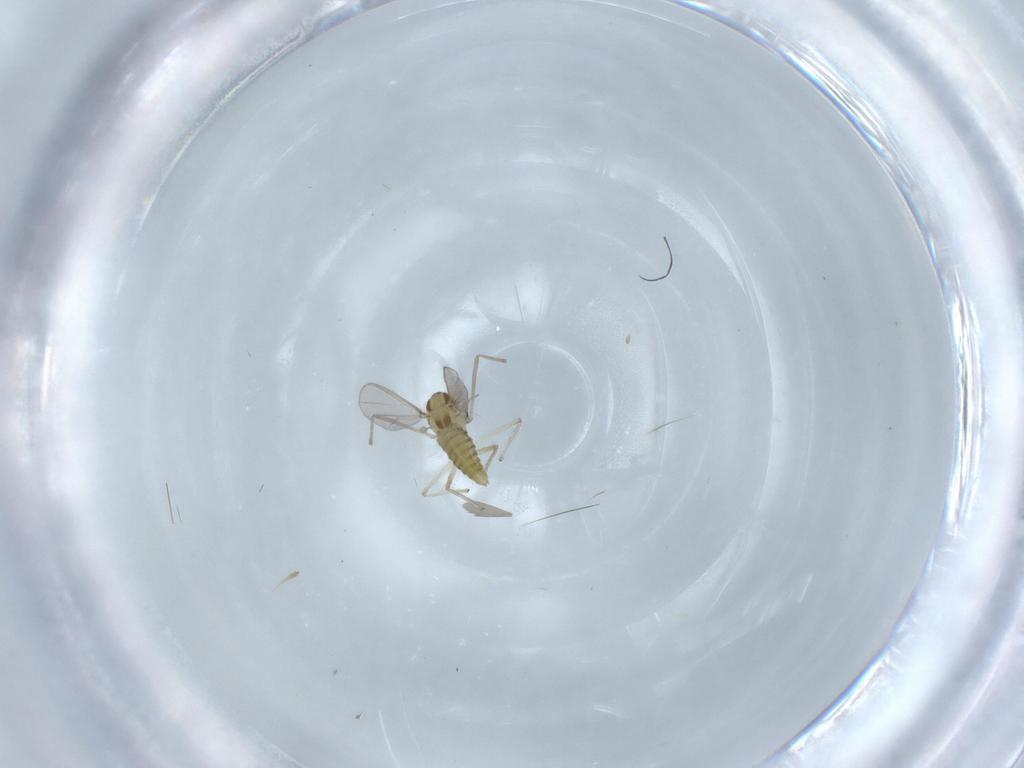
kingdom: Animalia
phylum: Arthropoda
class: Insecta
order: Diptera
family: Chironomidae
